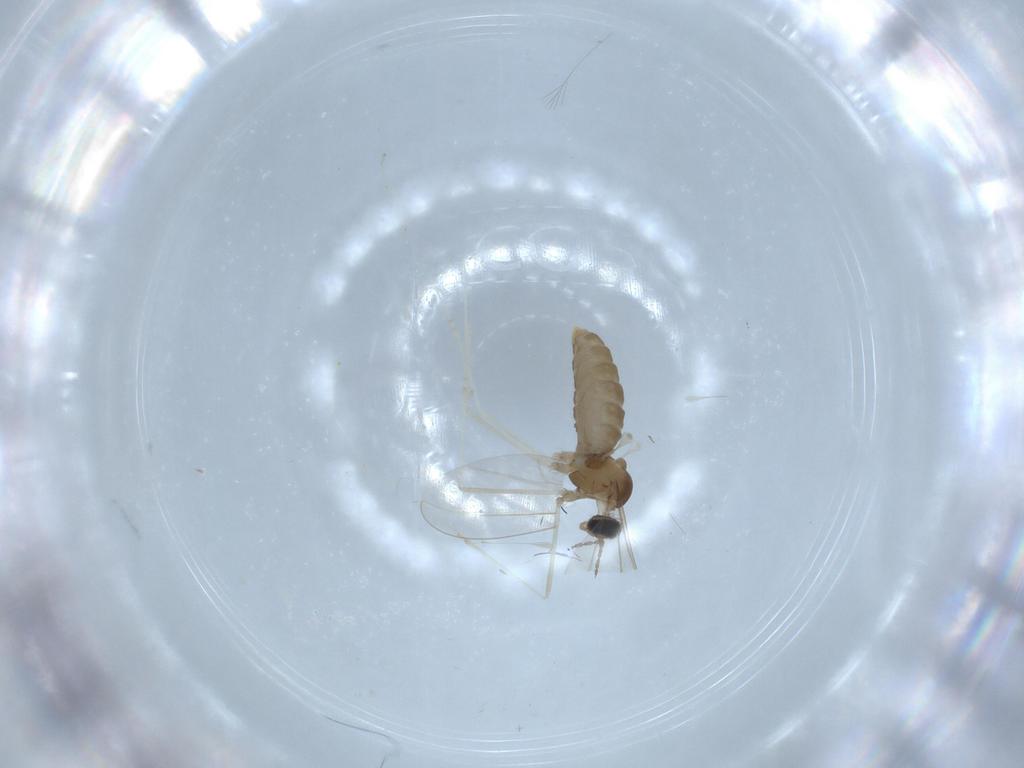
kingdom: Animalia
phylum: Arthropoda
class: Insecta
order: Diptera
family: Cecidomyiidae
